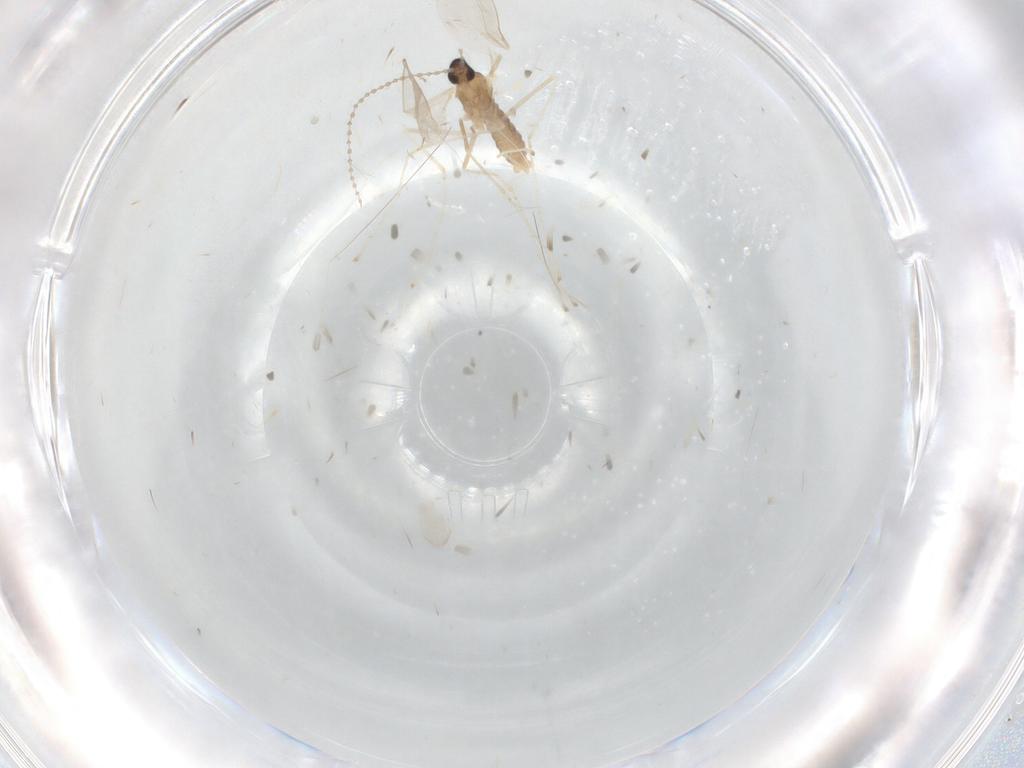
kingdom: Animalia
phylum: Arthropoda
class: Insecta
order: Diptera
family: Cecidomyiidae
